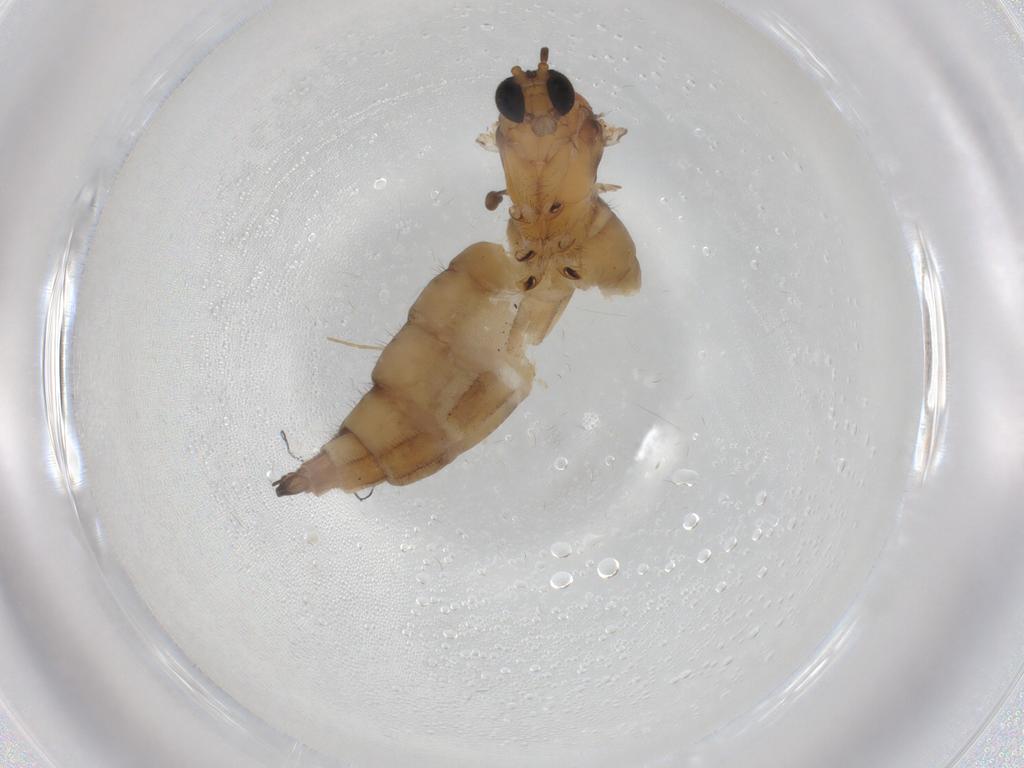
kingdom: Animalia
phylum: Arthropoda
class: Insecta
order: Diptera
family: Sciaridae
